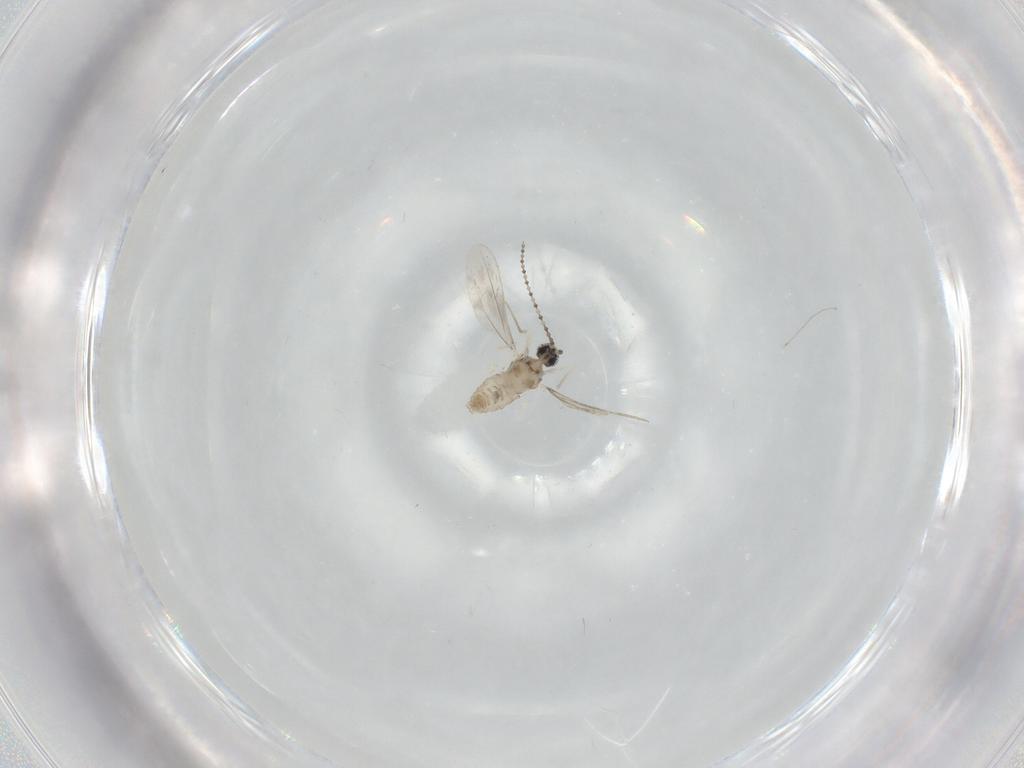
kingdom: Animalia
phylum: Arthropoda
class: Insecta
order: Diptera
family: Cecidomyiidae
